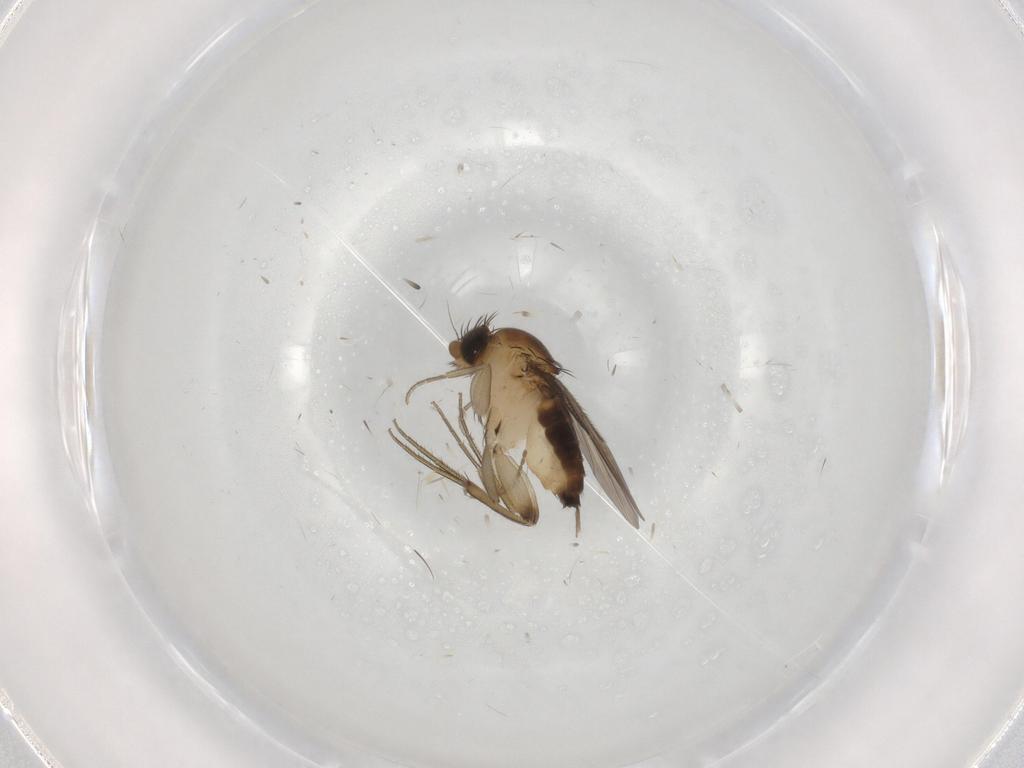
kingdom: Animalia
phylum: Arthropoda
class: Insecta
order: Diptera
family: Phoridae
